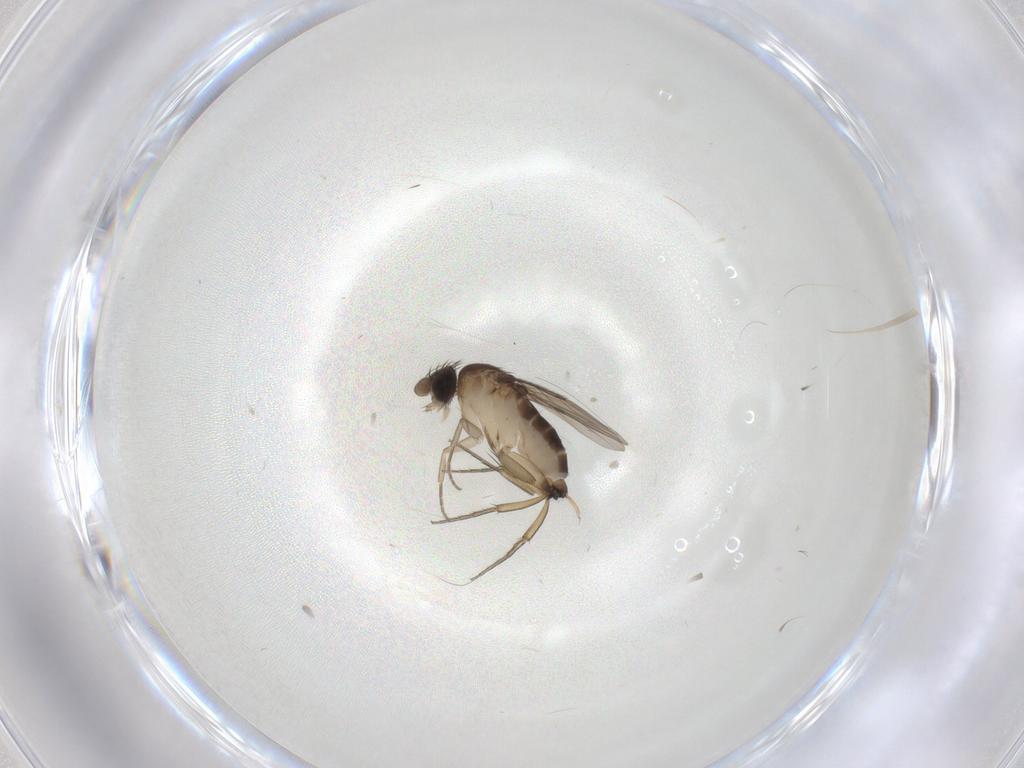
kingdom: Animalia
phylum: Arthropoda
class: Insecta
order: Diptera
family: Phoridae
